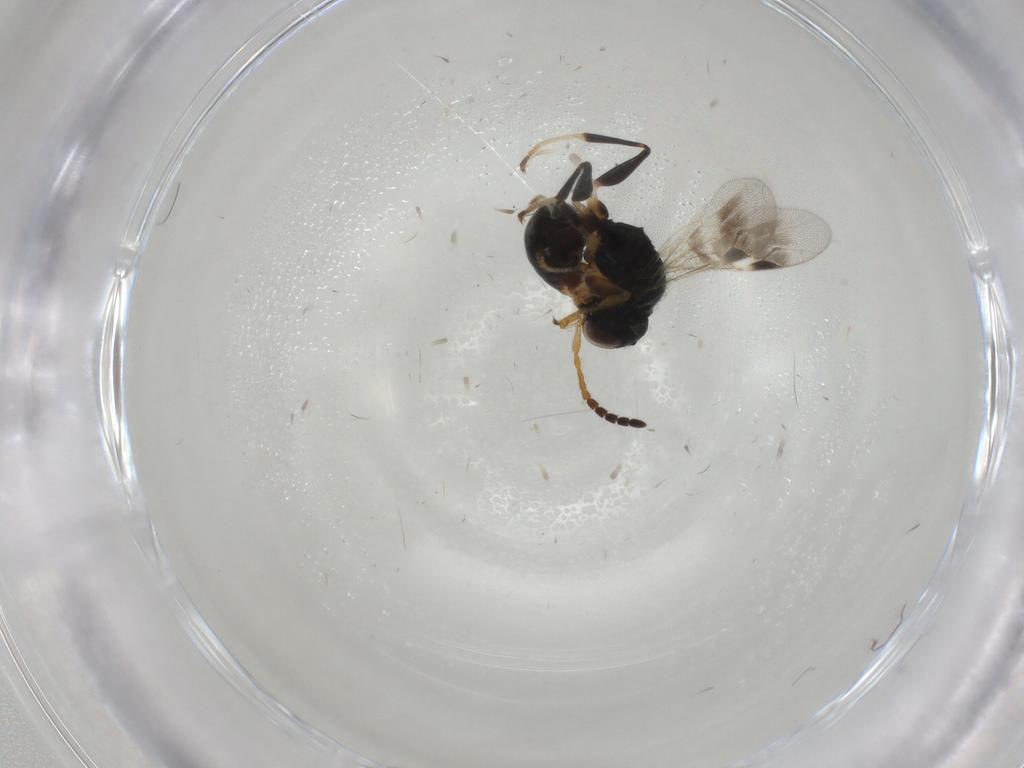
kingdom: Animalia
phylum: Arthropoda
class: Insecta
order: Hymenoptera
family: Dryinidae
